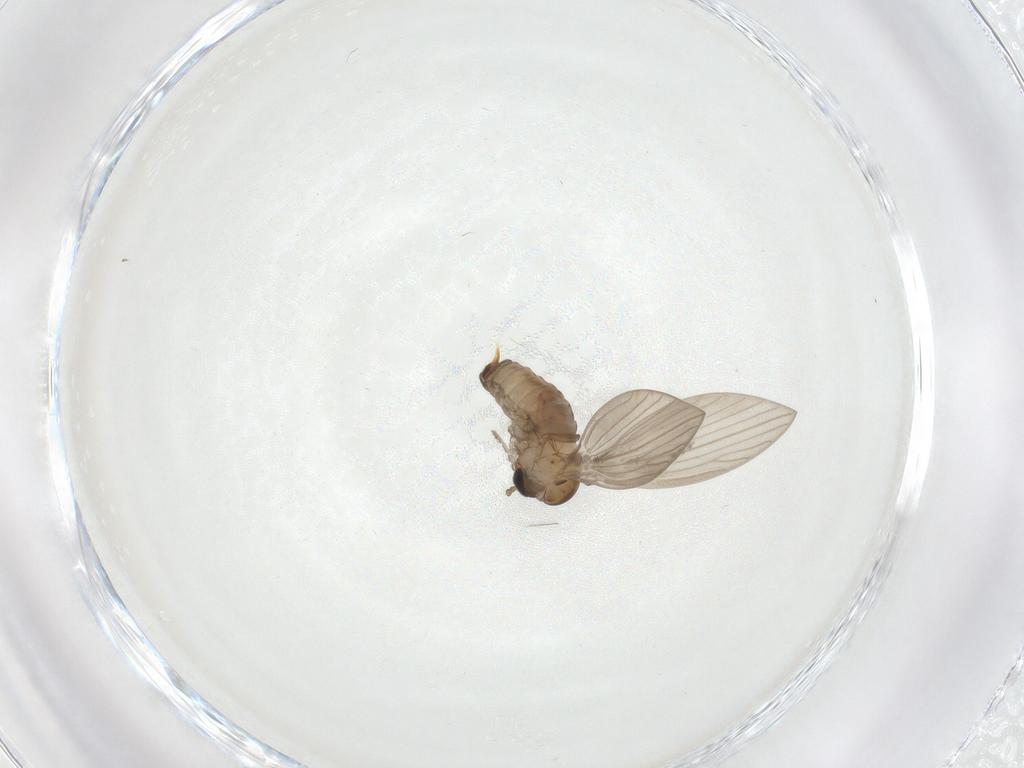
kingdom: Animalia
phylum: Arthropoda
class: Insecta
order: Diptera
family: Psychodidae
